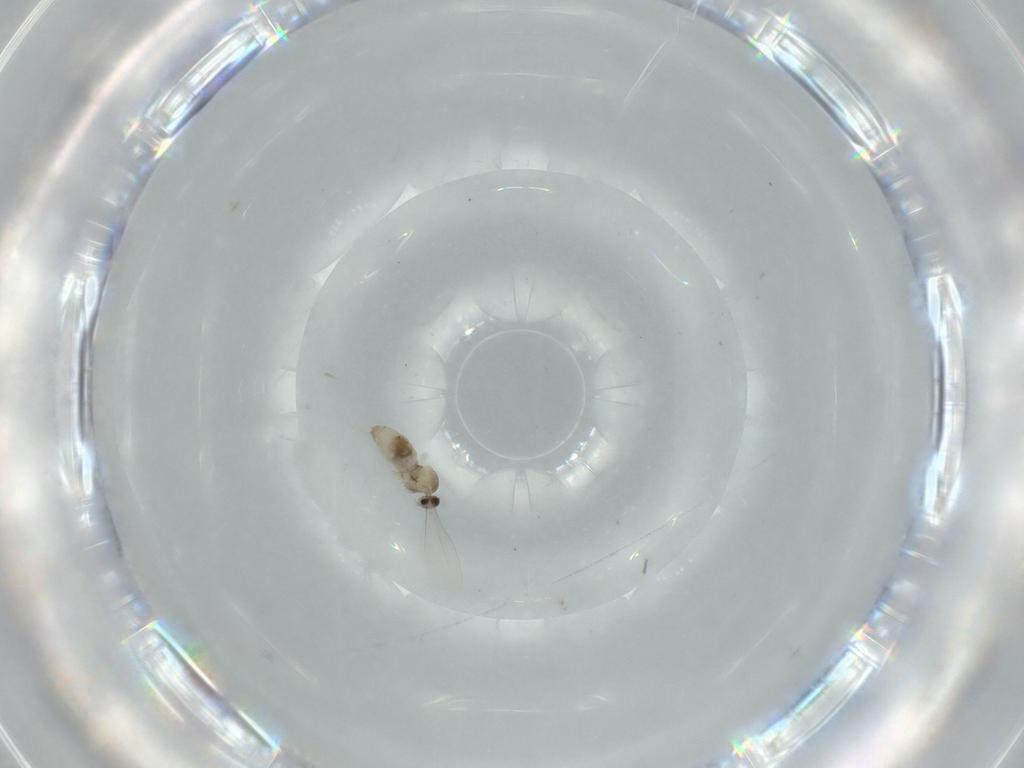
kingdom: Animalia
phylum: Arthropoda
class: Insecta
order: Diptera
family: Cecidomyiidae
